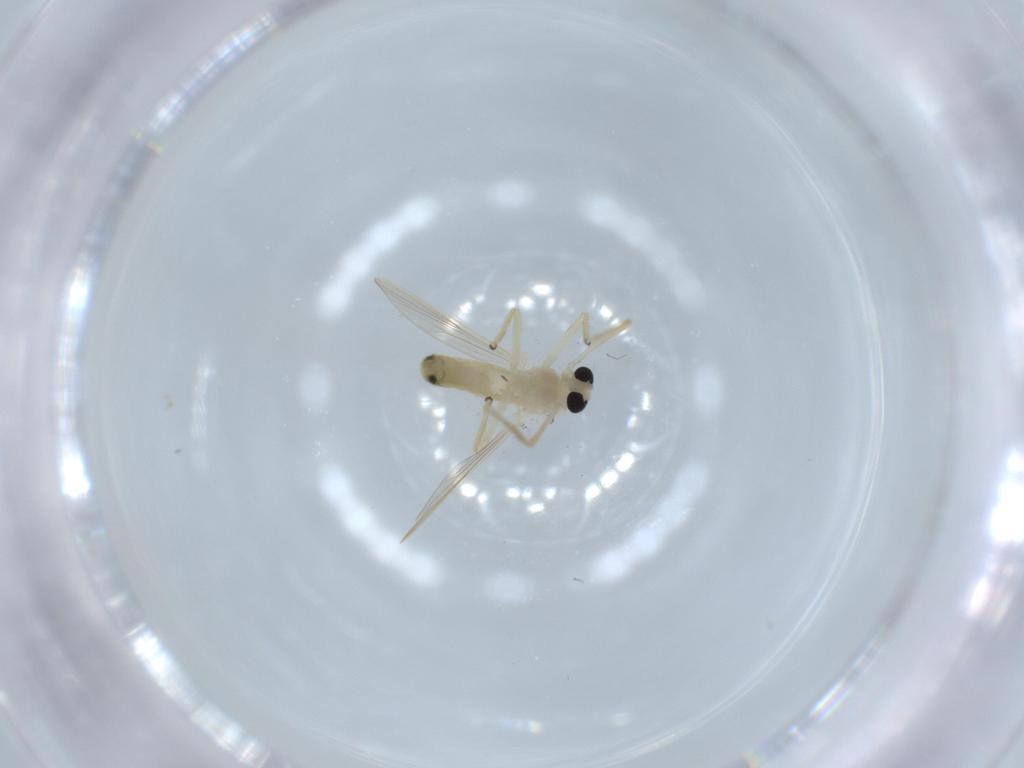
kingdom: Animalia
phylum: Arthropoda
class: Insecta
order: Diptera
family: Chironomidae
